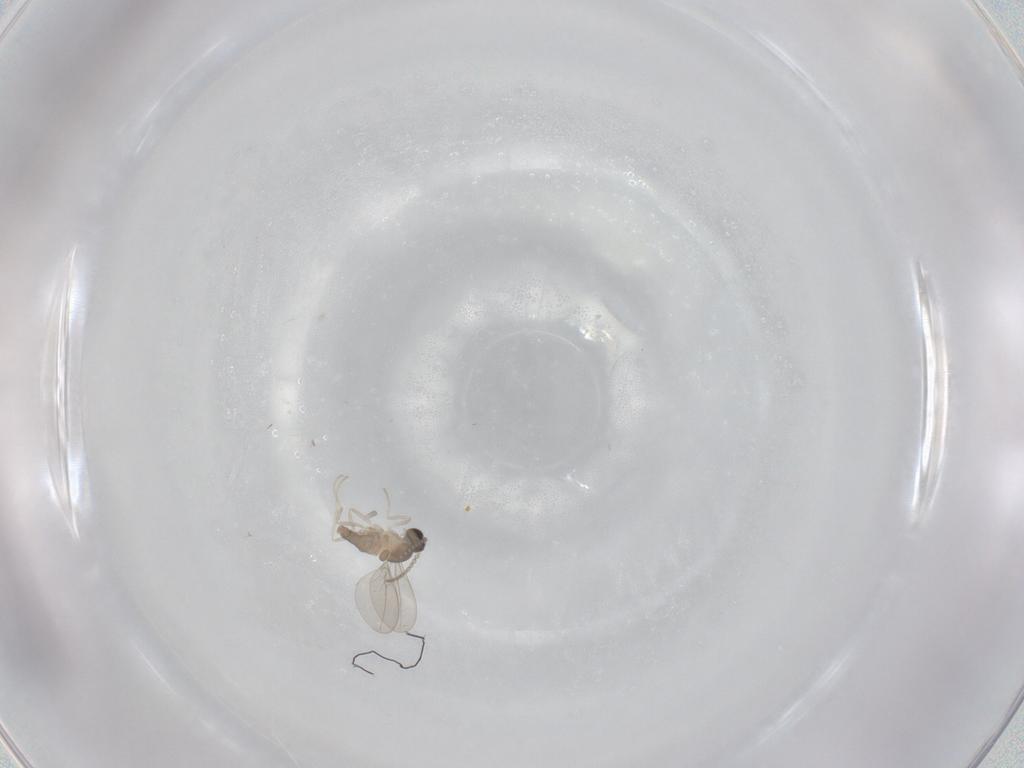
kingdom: Animalia
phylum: Arthropoda
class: Insecta
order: Diptera
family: Cecidomyiidae
